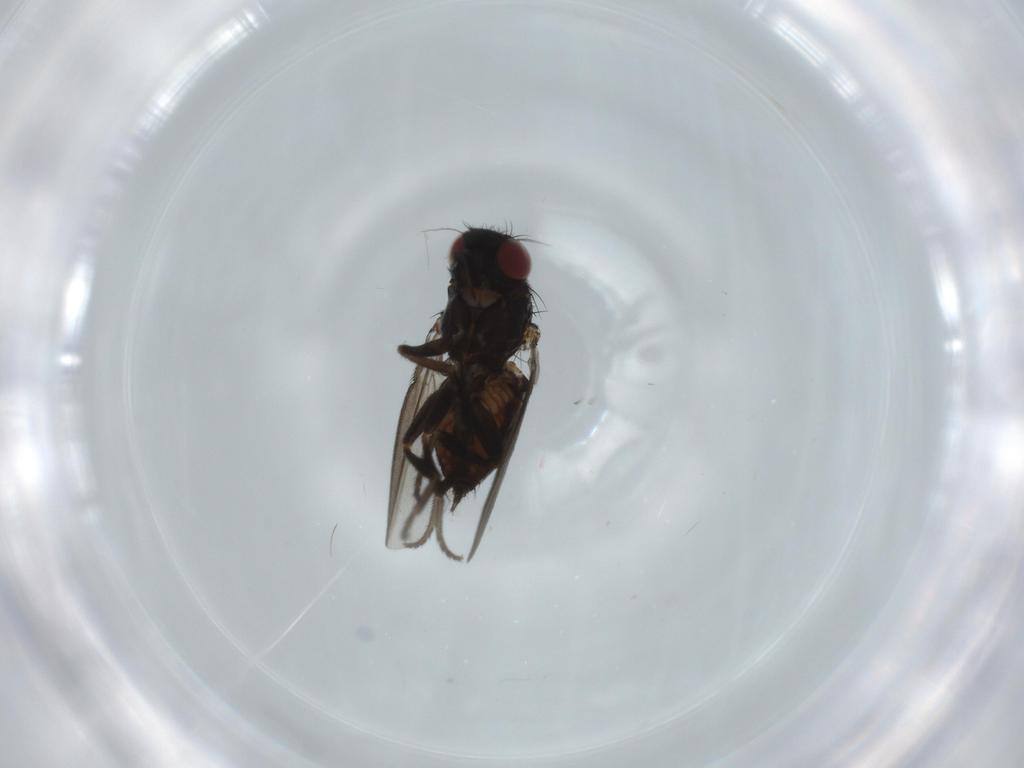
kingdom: Animalia
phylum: Arthropoda
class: Insecta
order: Diptera
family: Milichiidae
